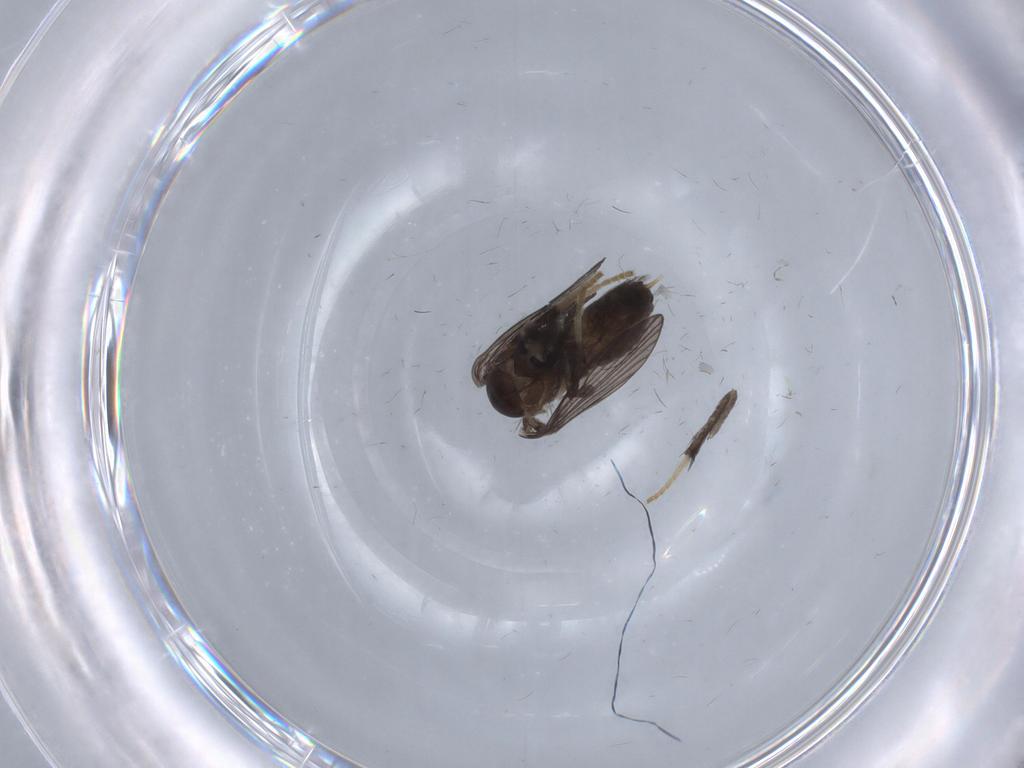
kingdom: Animalia
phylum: Arthropoda
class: Insecta
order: Diptera
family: Psychodidae
